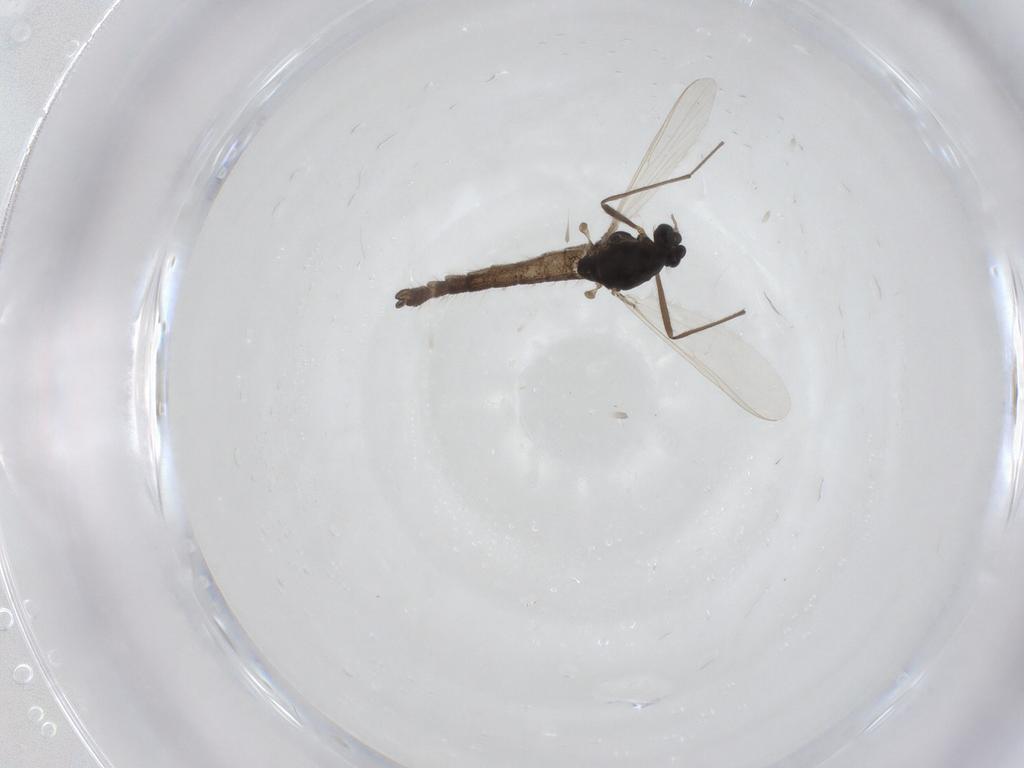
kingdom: Animalia
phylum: Arthropoda
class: Insecta
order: Diptera
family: Chironomidae
